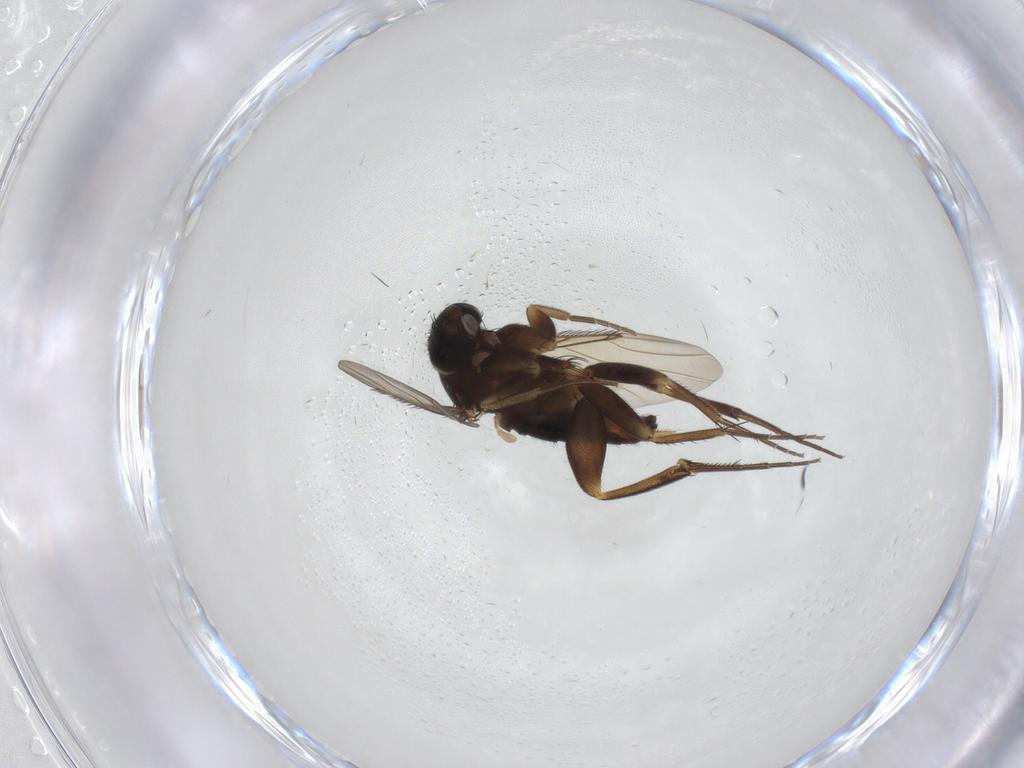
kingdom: Animalia
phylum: Arthropoda
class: Insecta
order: Diptera
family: Phoridae
